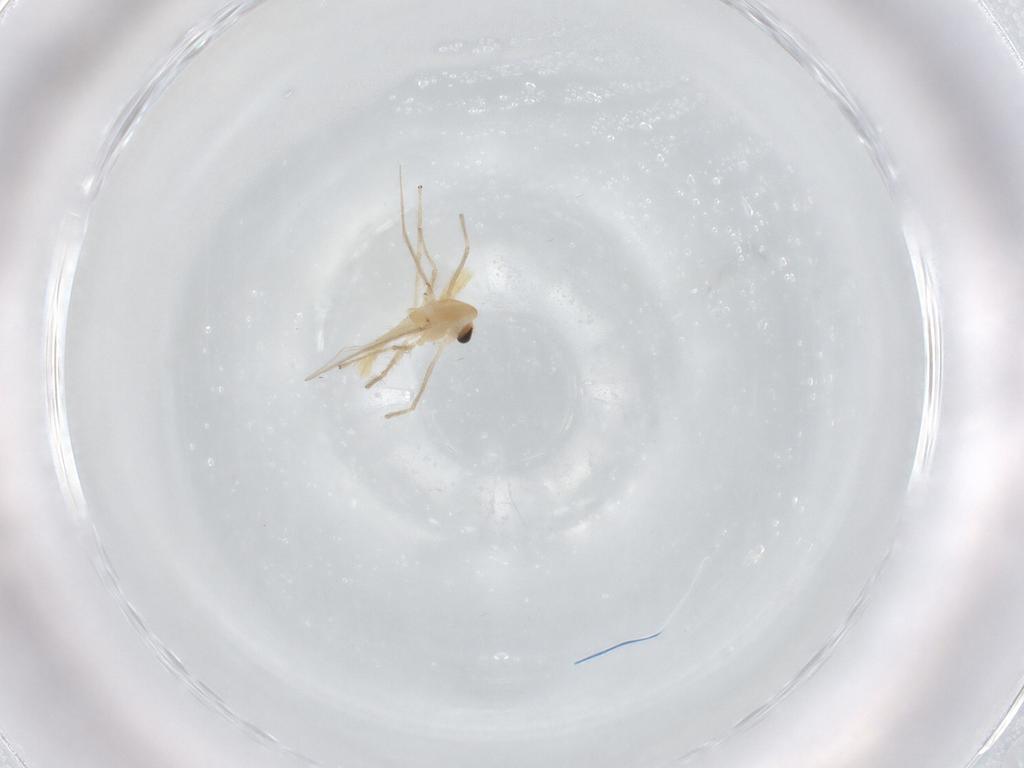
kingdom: Animalia
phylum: Arthropoda
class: Insecta
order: Diptera
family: Chironomidae
